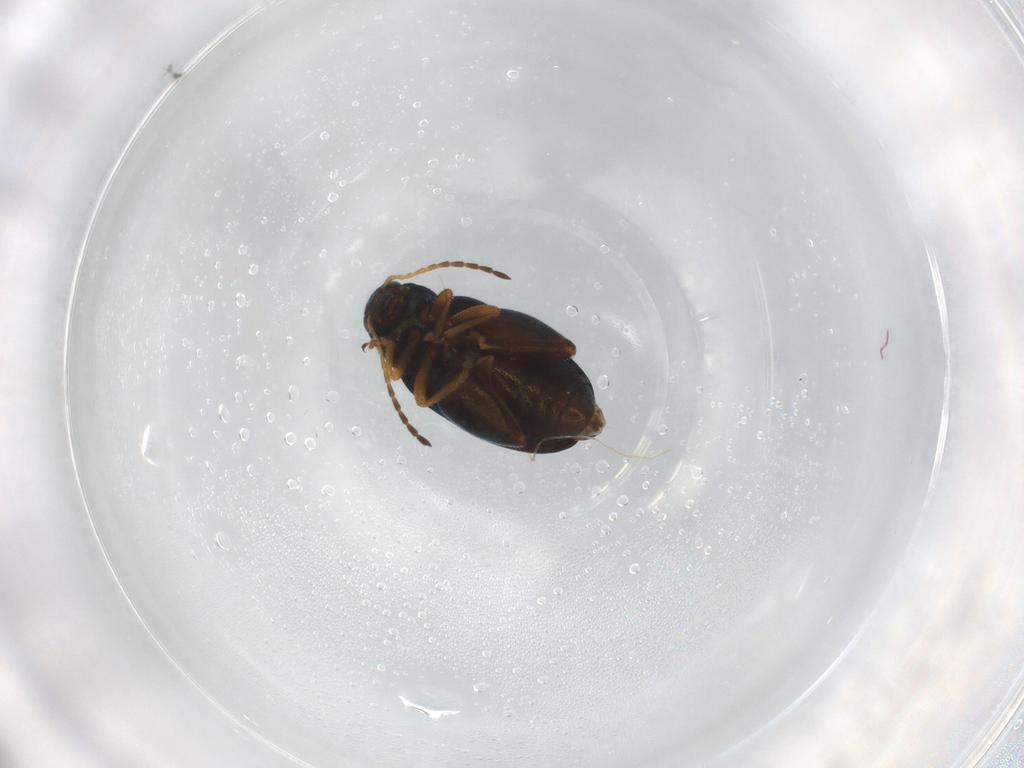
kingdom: Animalia
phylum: Arthropoda
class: Insecta
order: Coleoptera
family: Chrysomelidae
